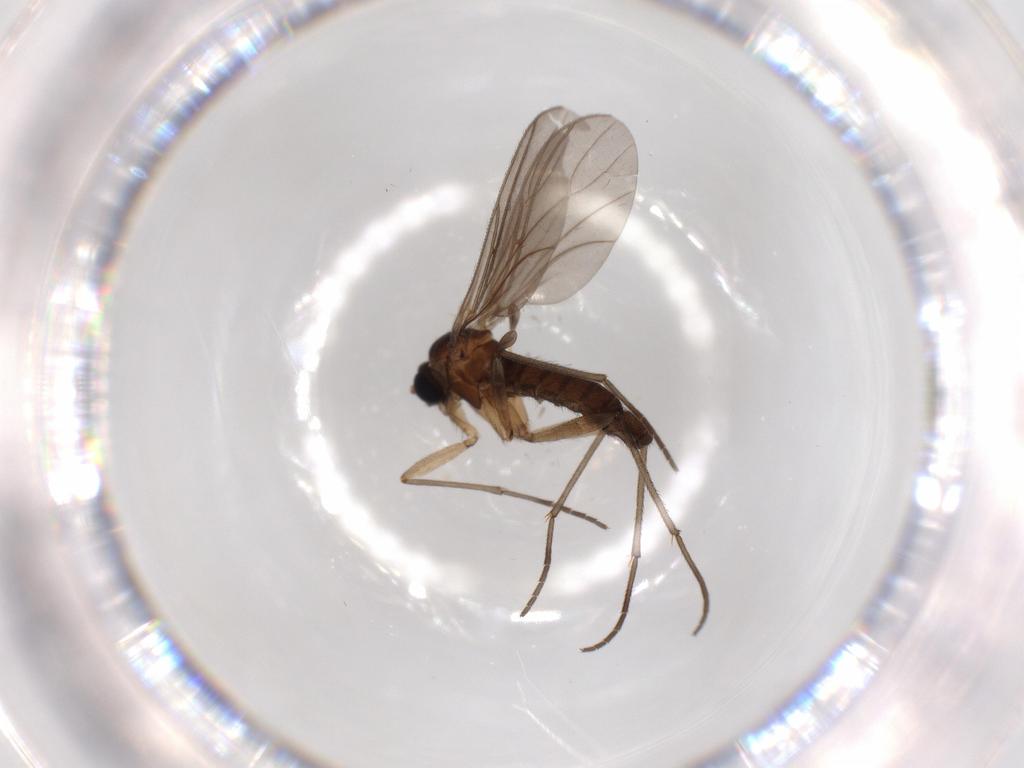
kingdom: Animalia
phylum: Arthropoda
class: Insecta
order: Diptera
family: Sciaridae
